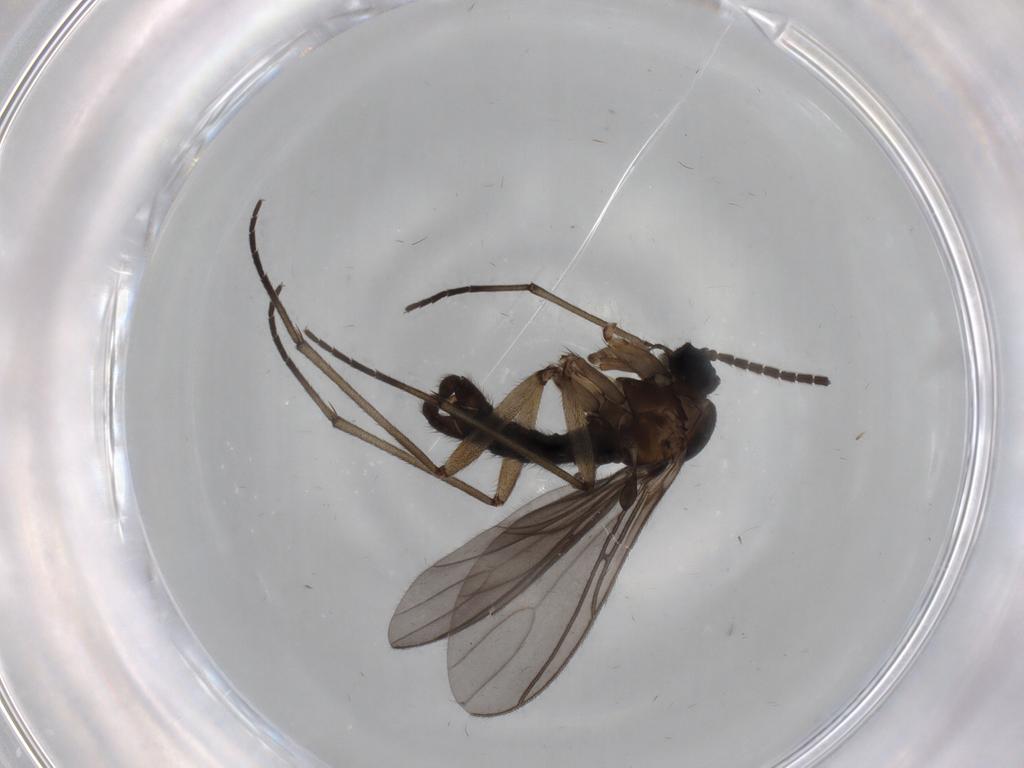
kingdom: Animalia
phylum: Arthropoda
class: Insecta
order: Diptera
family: Sciaridae
